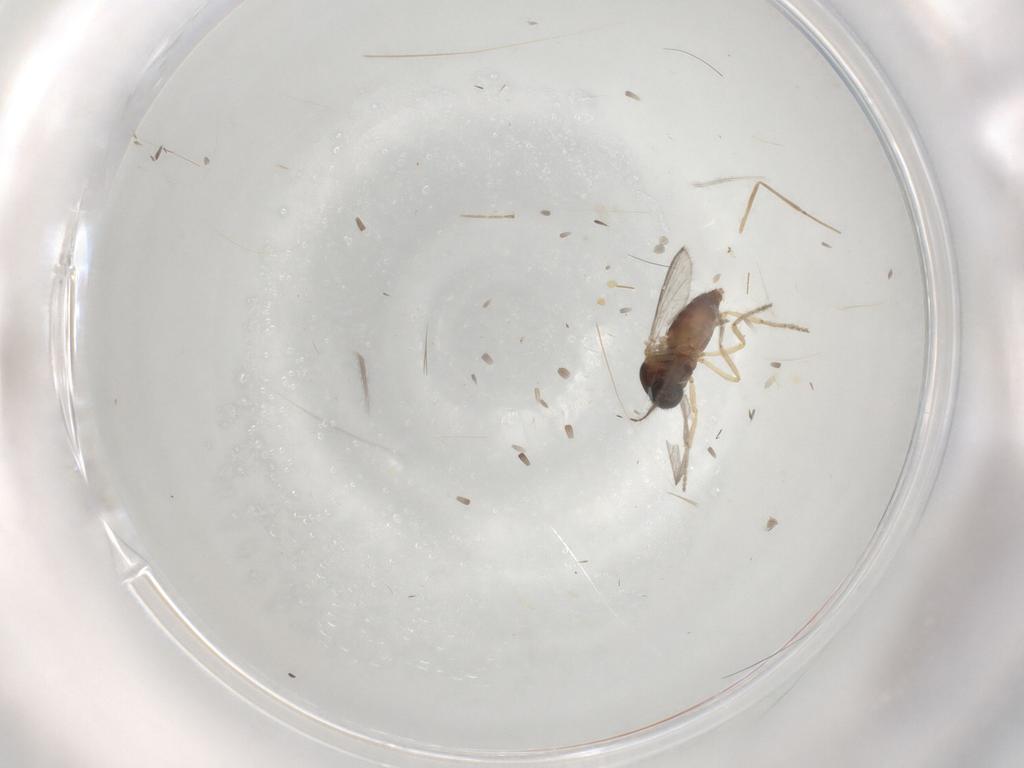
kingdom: Animalia
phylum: Arthropoda
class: Insecta
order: Diptera
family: Ceratopogonidae
